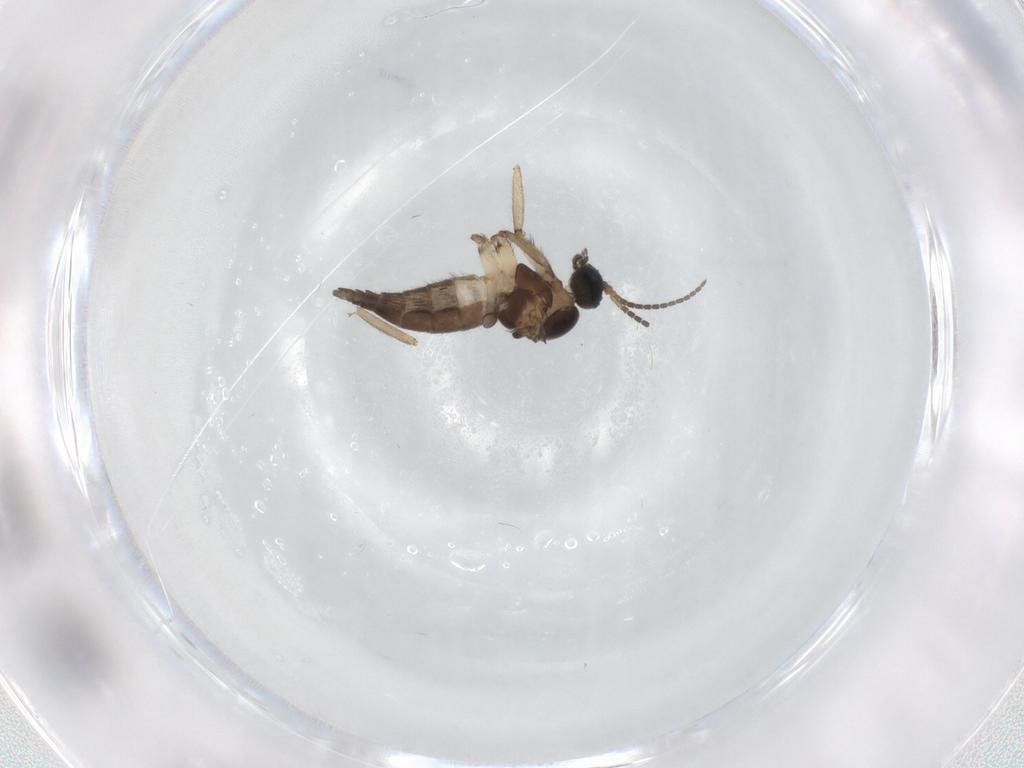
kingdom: Animalia
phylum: Arthropoda
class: Insecta
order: Diptera
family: Sciaridae
